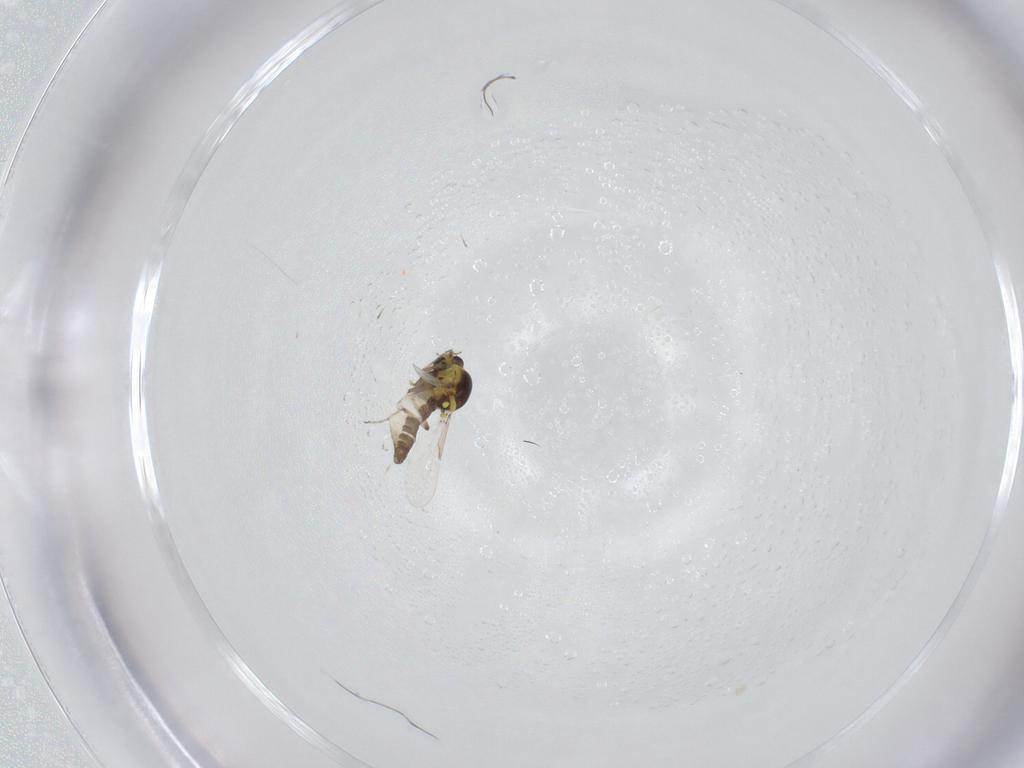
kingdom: Animalia
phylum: Arthropoda
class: Insecta
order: Diptera
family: Ceratopogonidae
